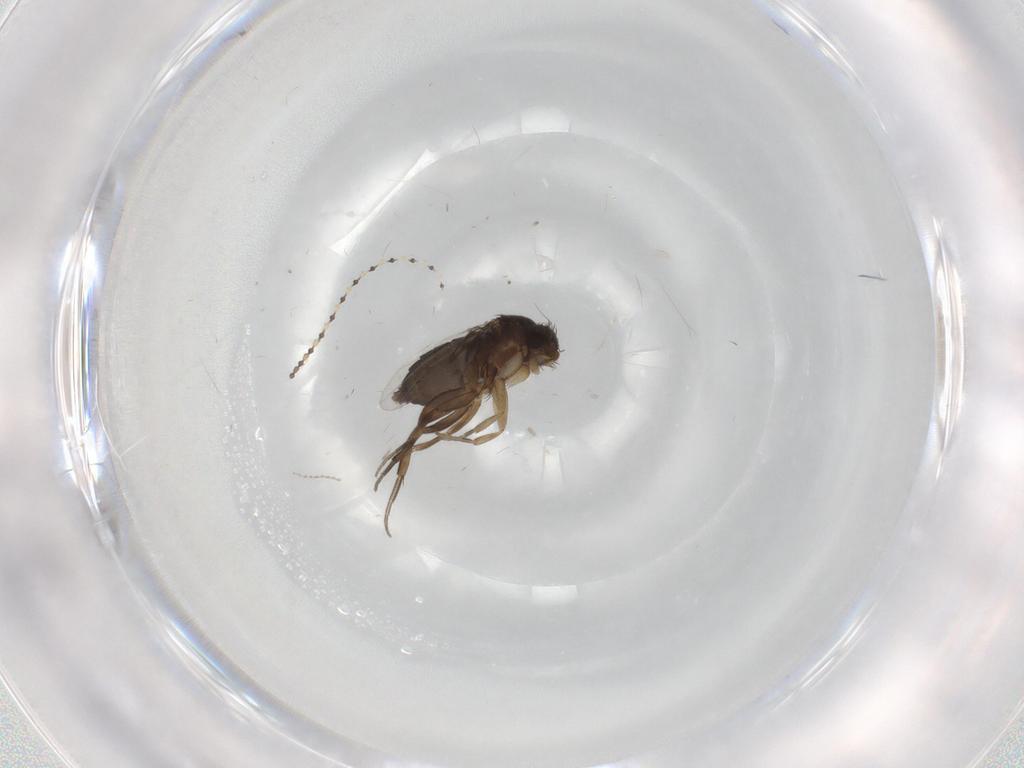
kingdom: Animalia
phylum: Arthropoda
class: Insecta
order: Diptera
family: Phoridae
